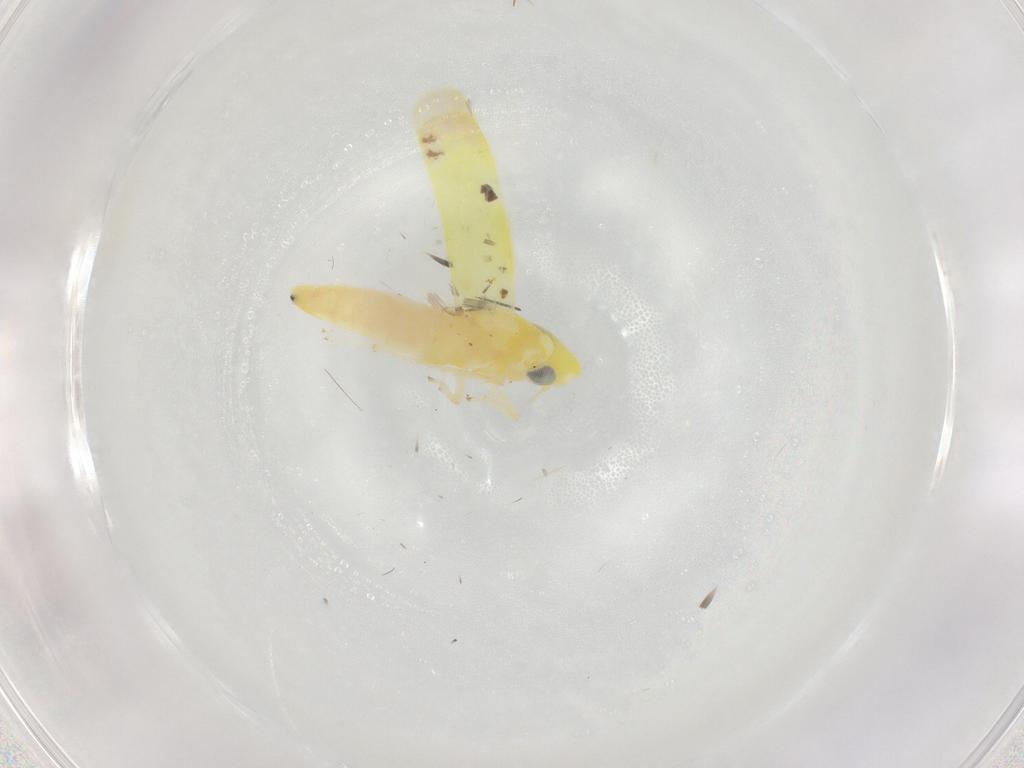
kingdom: Animalia
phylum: Arthropoda
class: Insecta
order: Hemiptera
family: Cicadellidae
